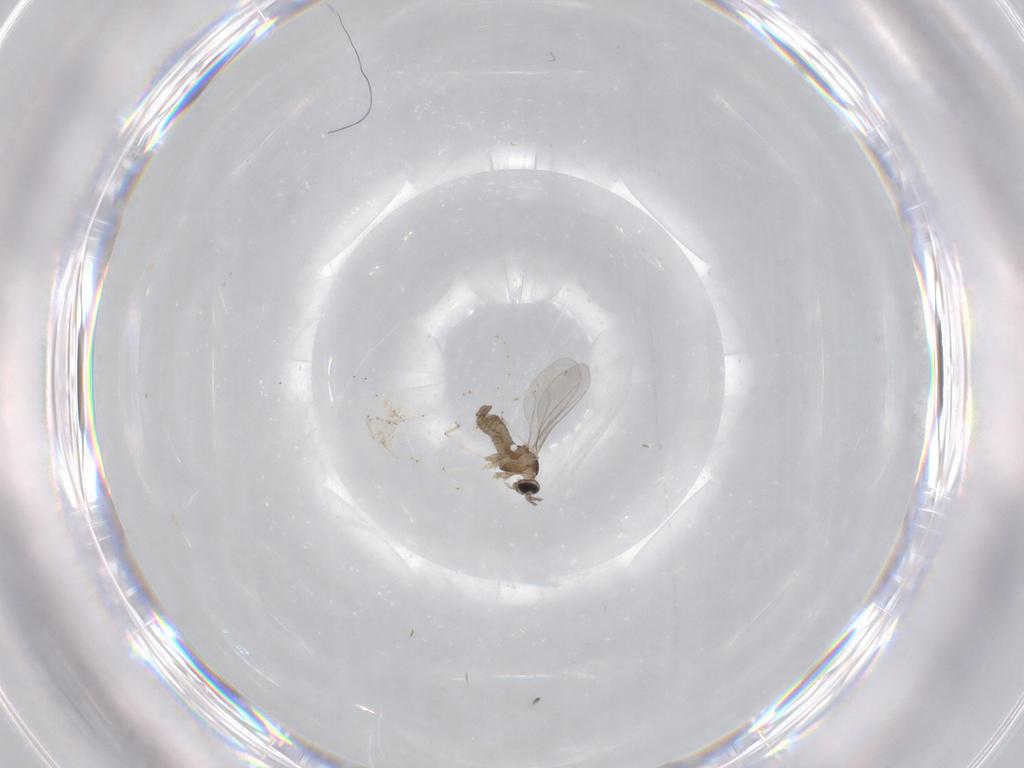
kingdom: Animalia
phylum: Arthropoda
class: Insecta
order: Diptera
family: Cecidomyiidae
